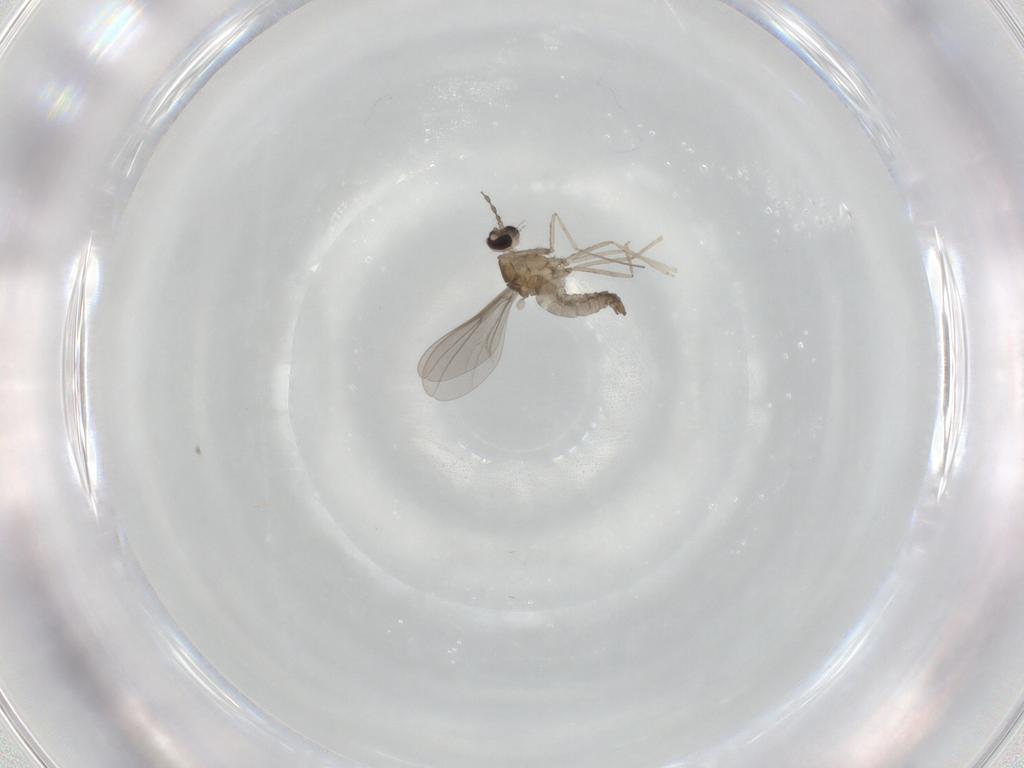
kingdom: Animalia
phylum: Arthropoda
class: Insecta
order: Diptera
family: Cecidomyiidae
